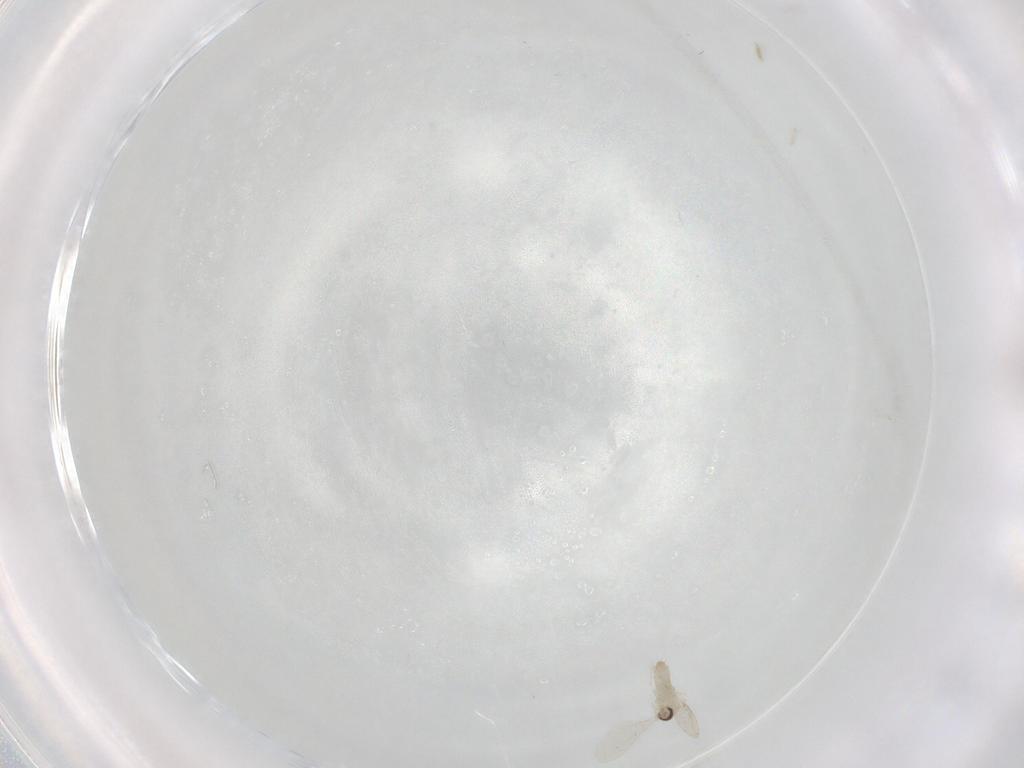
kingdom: Animalia
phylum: Arthropoda
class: Insecta
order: Diptera
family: Cecidomyiidae
